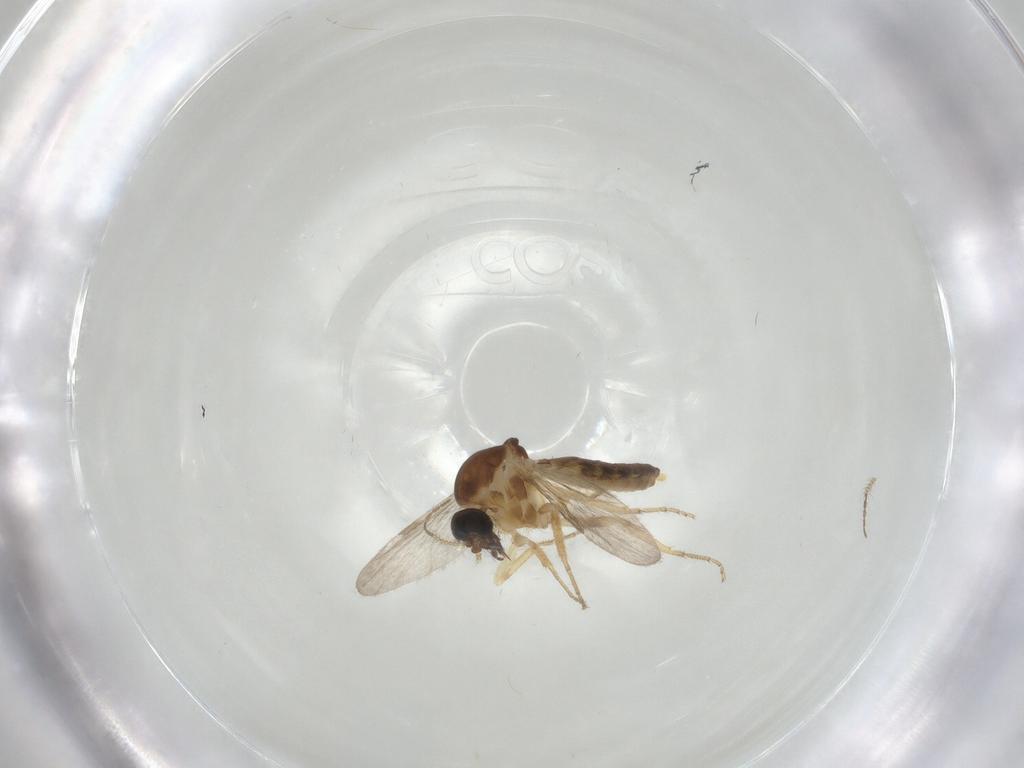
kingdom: Animalia
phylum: Arthropoda
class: Insecta
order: Diptera
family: Ceratopogonidae
